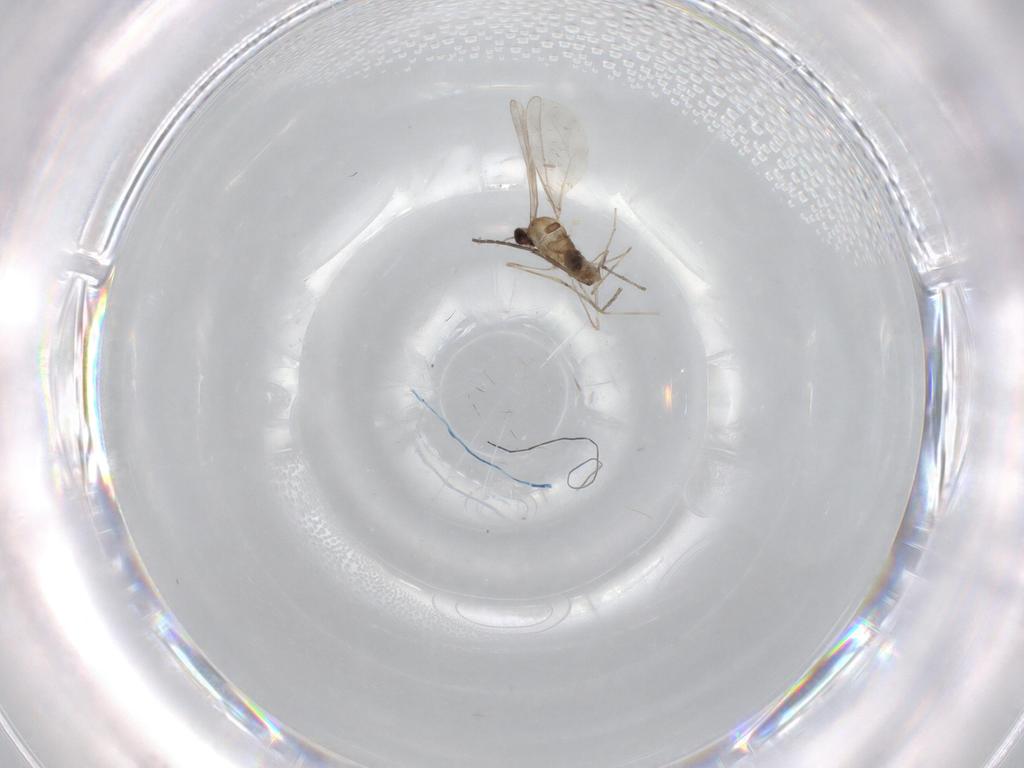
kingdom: Animalia
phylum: Arthropoda
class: Insecta
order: Diptera
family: Cecidomyiidae
